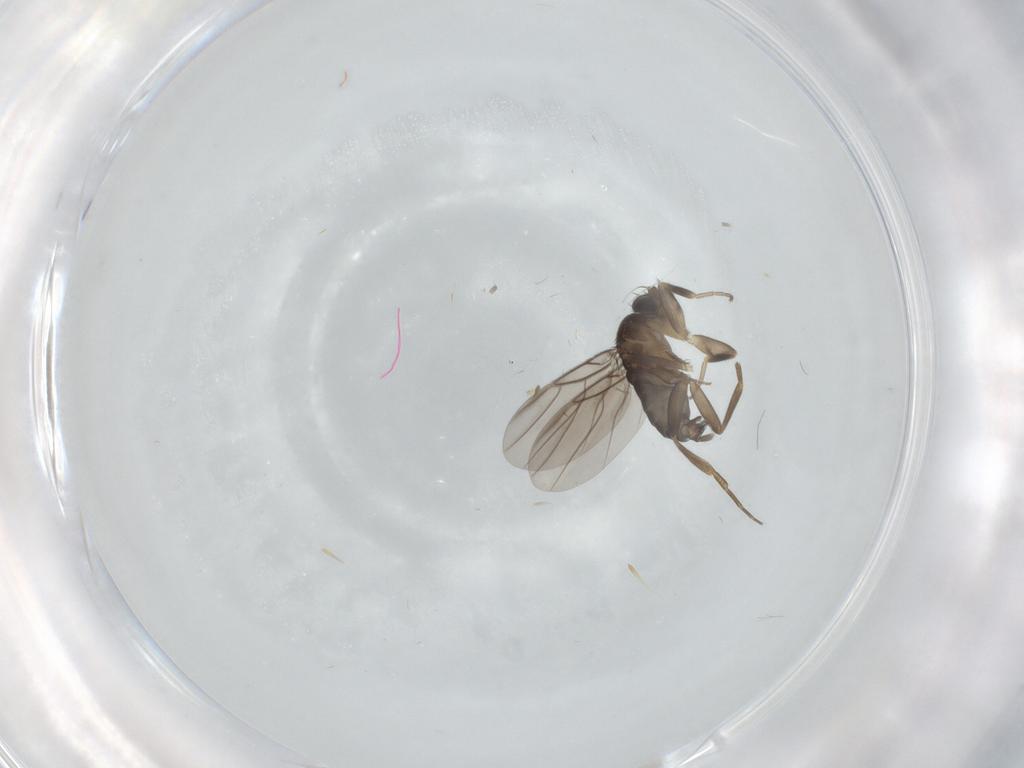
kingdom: Animalia
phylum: Arthropoda
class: Insecta
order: Diptera
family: Phoridae
